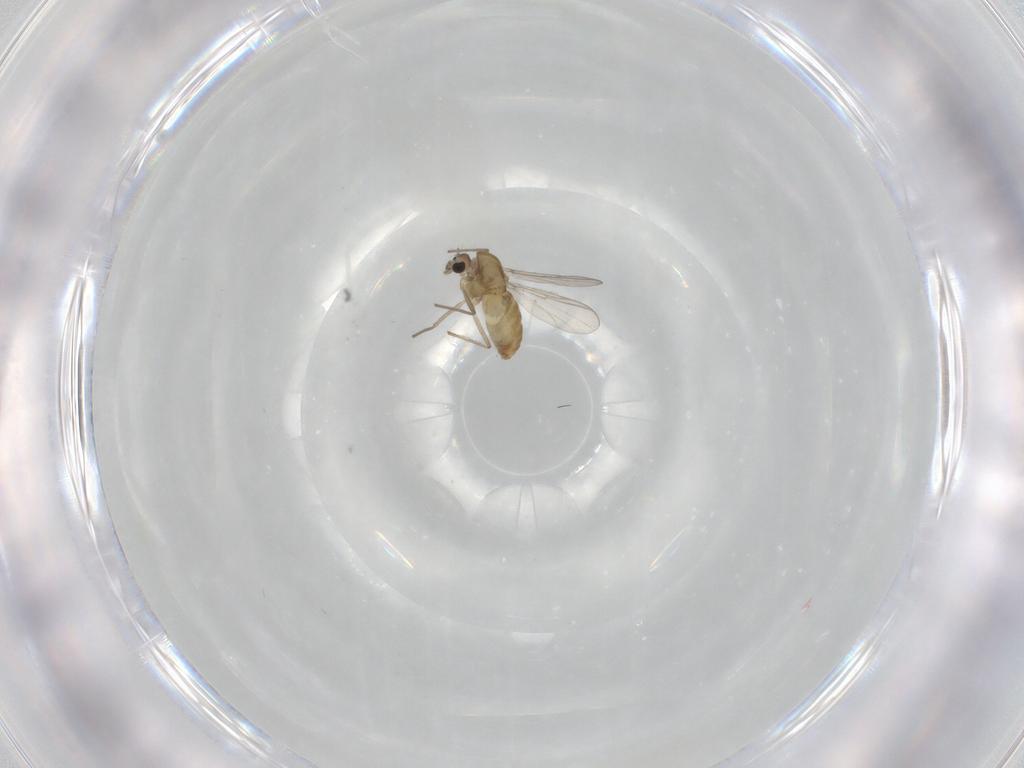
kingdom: Animalia
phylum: Arthropoda
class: Insecta
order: Diptera
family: Chironomidae
